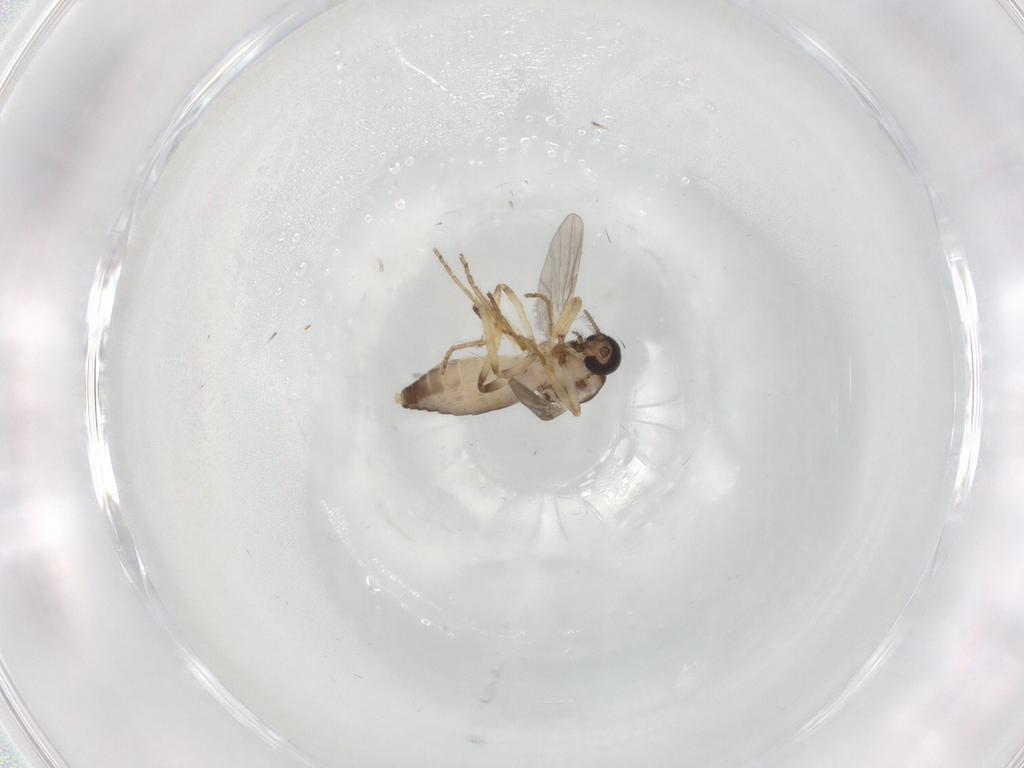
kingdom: Animalia
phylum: Arthropoda
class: Insecta
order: Diptera
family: Ceratopogonidae
